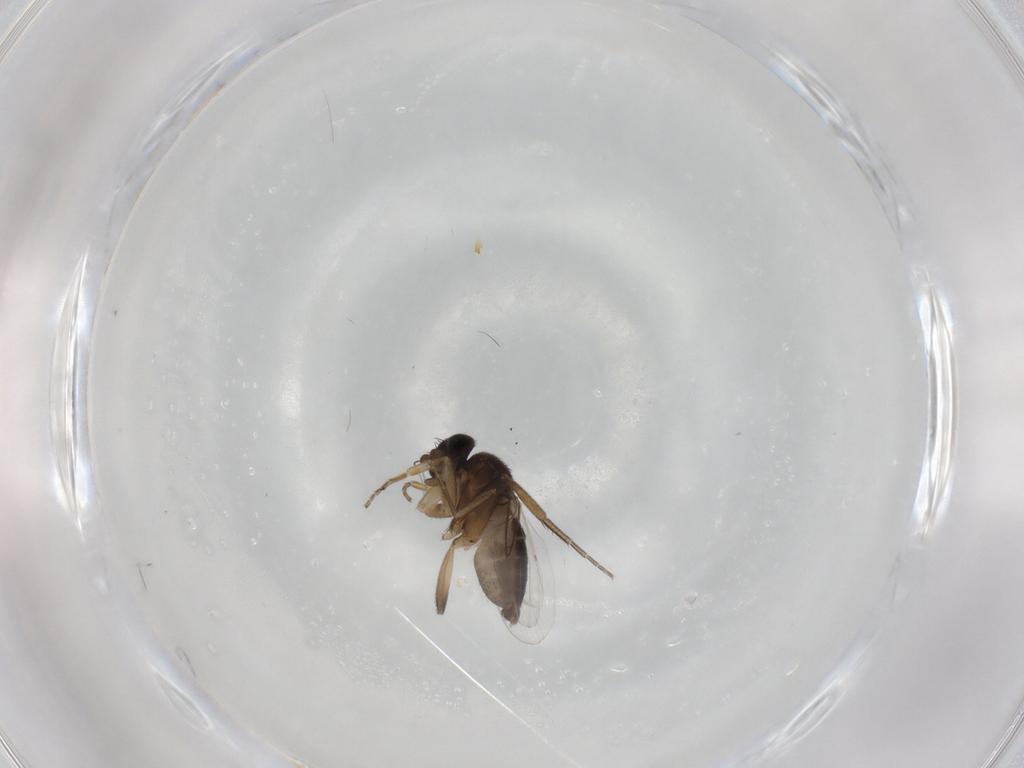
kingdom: Animalia
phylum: Arthropoda
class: Insecta
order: Diptera
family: Phoridae
